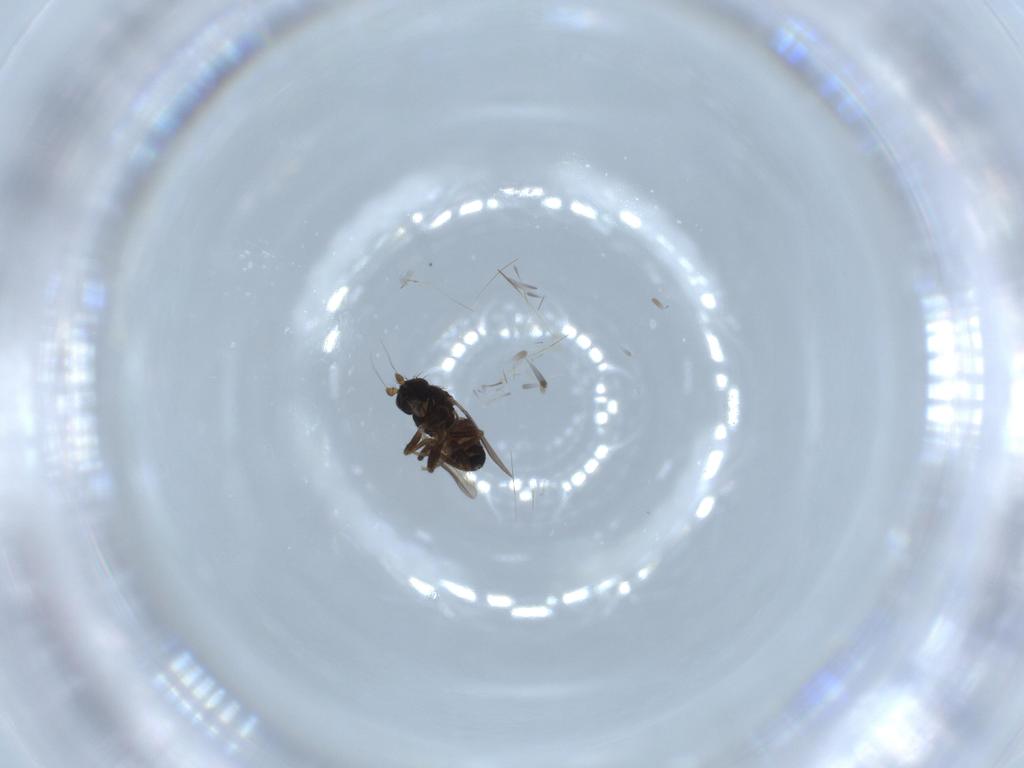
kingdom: Animalia
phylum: Arthropoda
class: Insecta
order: Diptera
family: Sphaeroceridae
